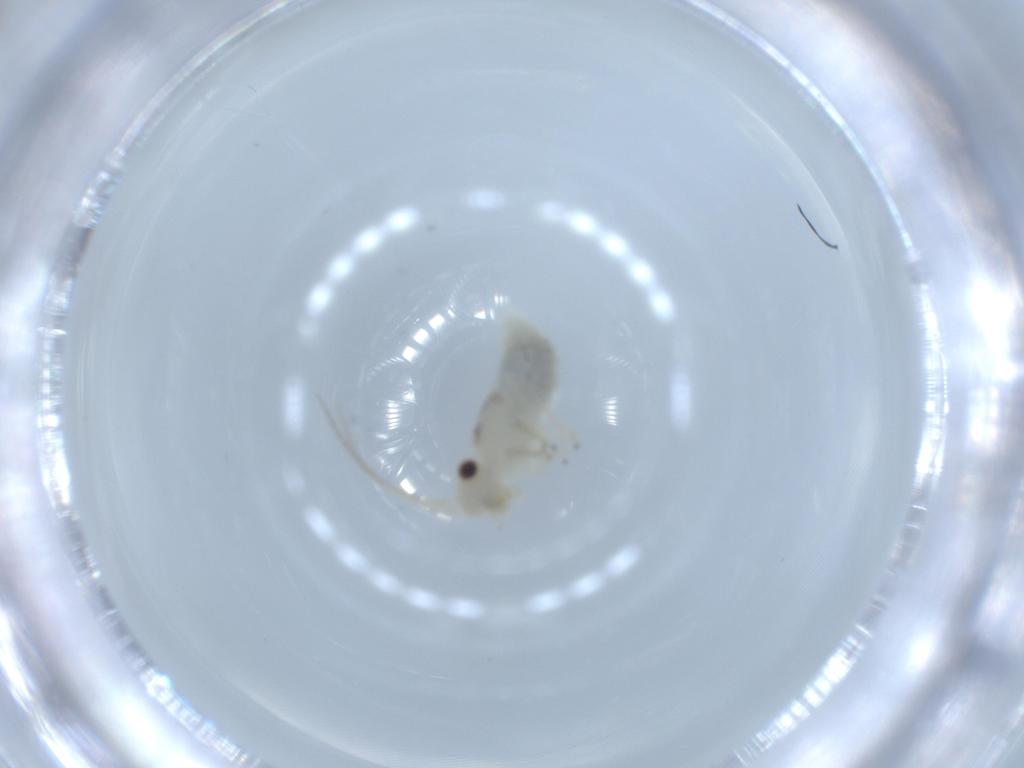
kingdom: Animalia
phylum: Arthropoda
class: Insecta
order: Psocodea
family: Caeciliusidae
